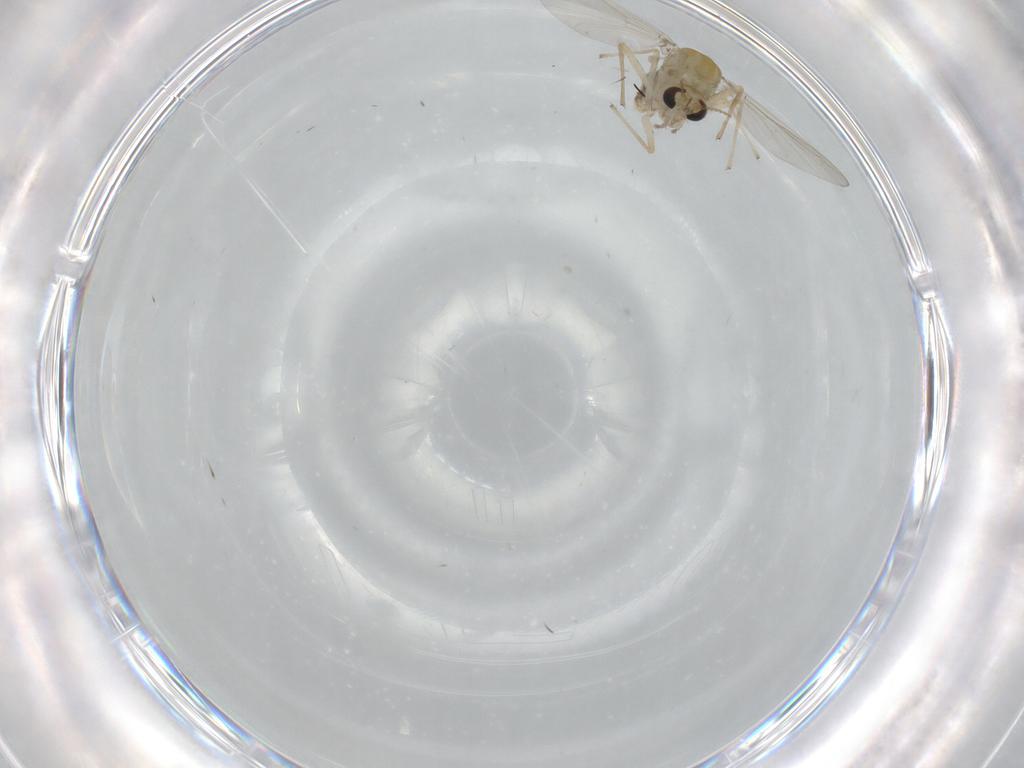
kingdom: Animalia
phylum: Arthropoda
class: Insecta
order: Diptera
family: Chironomidae
